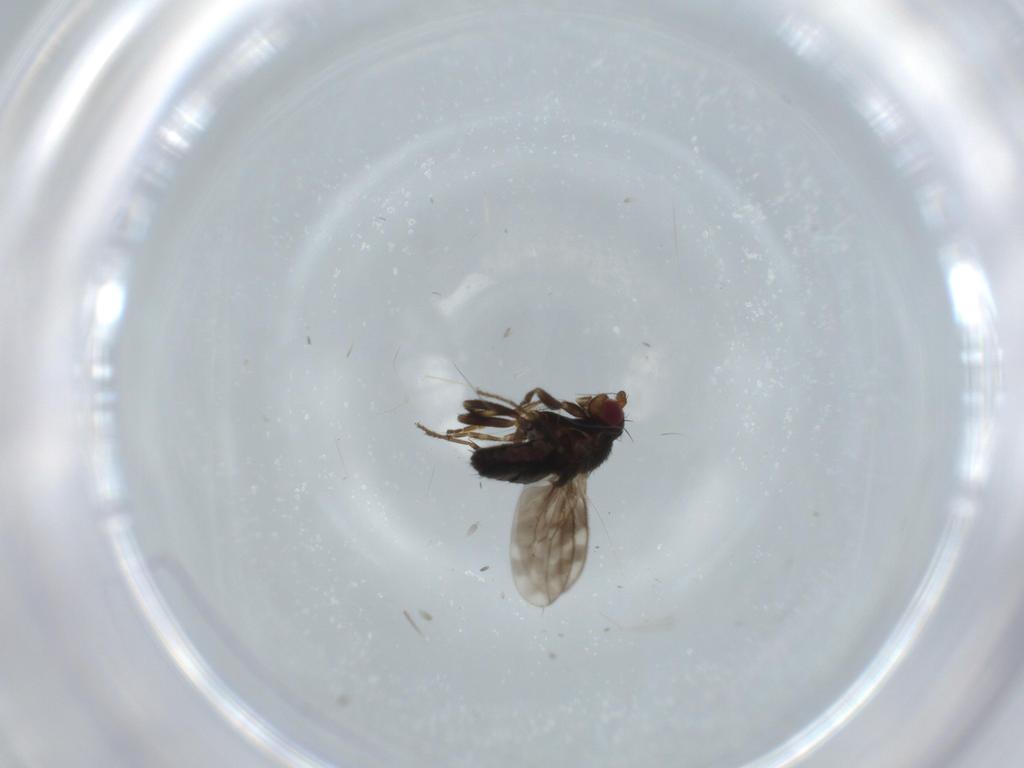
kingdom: Animalia
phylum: Arthropoda
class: Insecta
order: Diptera
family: Sphaeroceridae
